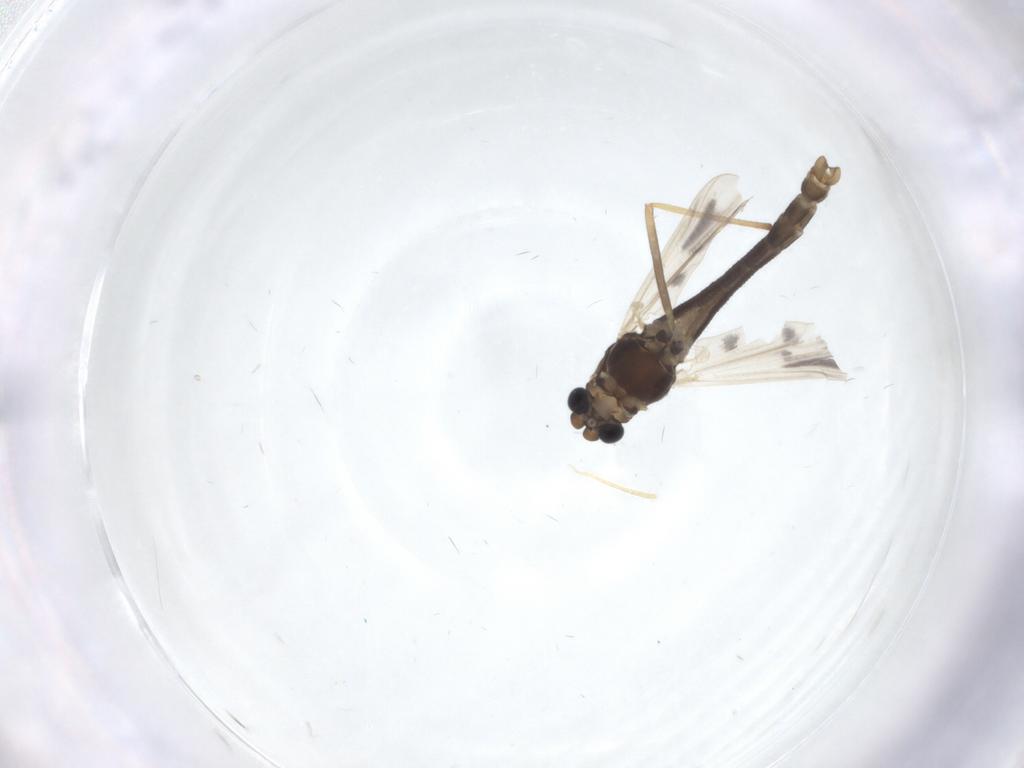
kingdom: Animalia
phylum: Arthropoda
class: Insecta
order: Diptera
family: Chironomidae
